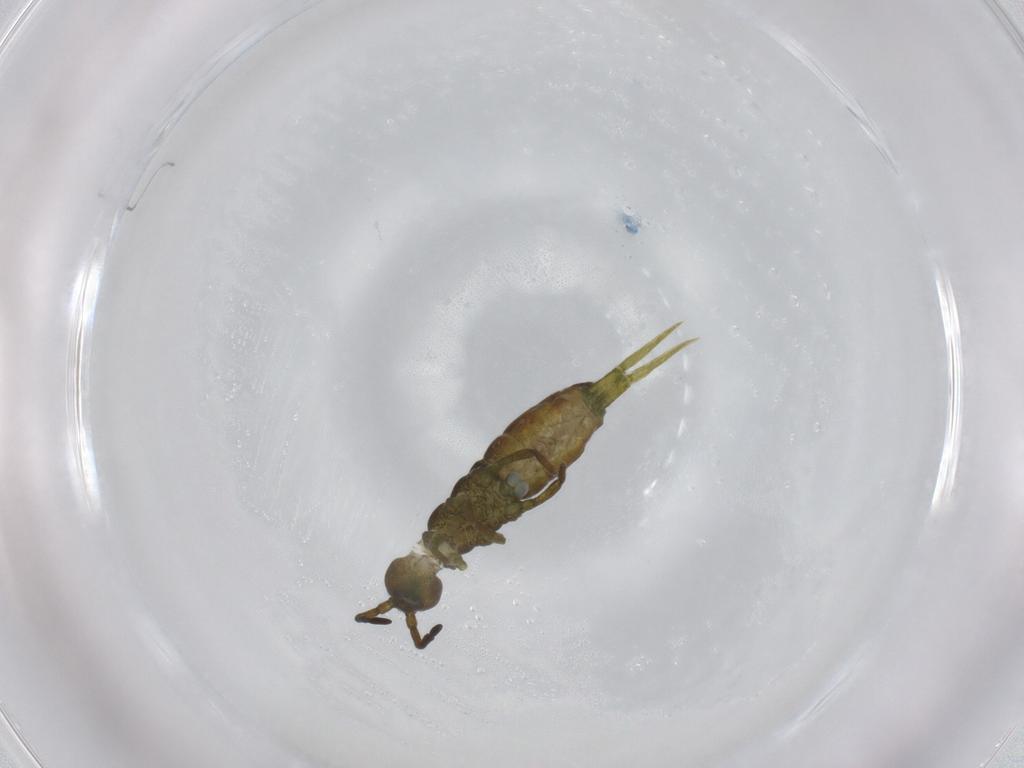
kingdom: Animalia
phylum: Arthropoda
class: Collembola
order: Entomobryomorpha
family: Isotomidae
